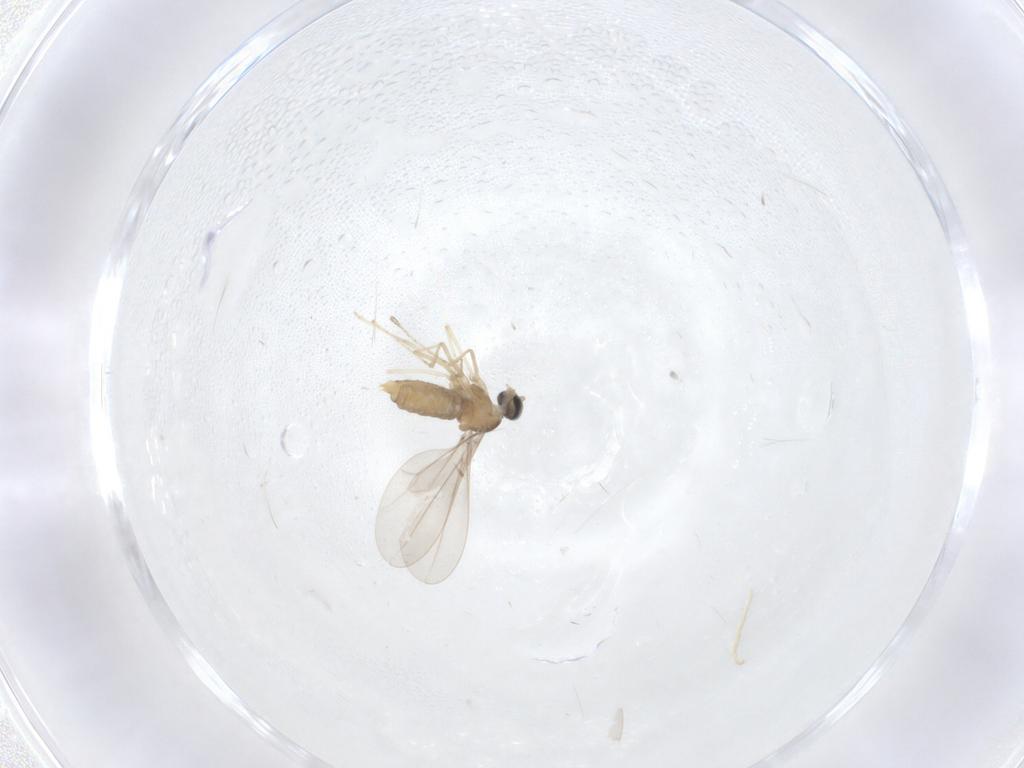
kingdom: Animalia
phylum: Arthropoda
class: Insecta
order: Diptera
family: Cecidomyiidae
